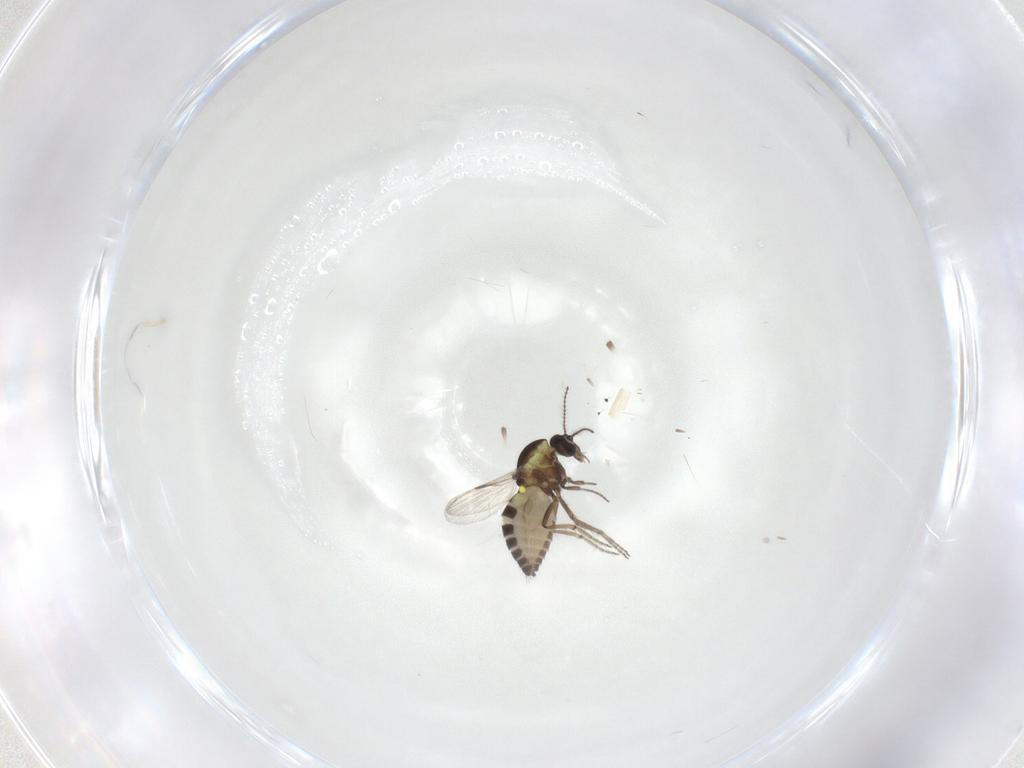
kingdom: Animalia
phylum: Arthropoda
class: Insecta
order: Diptera
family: Ceratopogonidae
